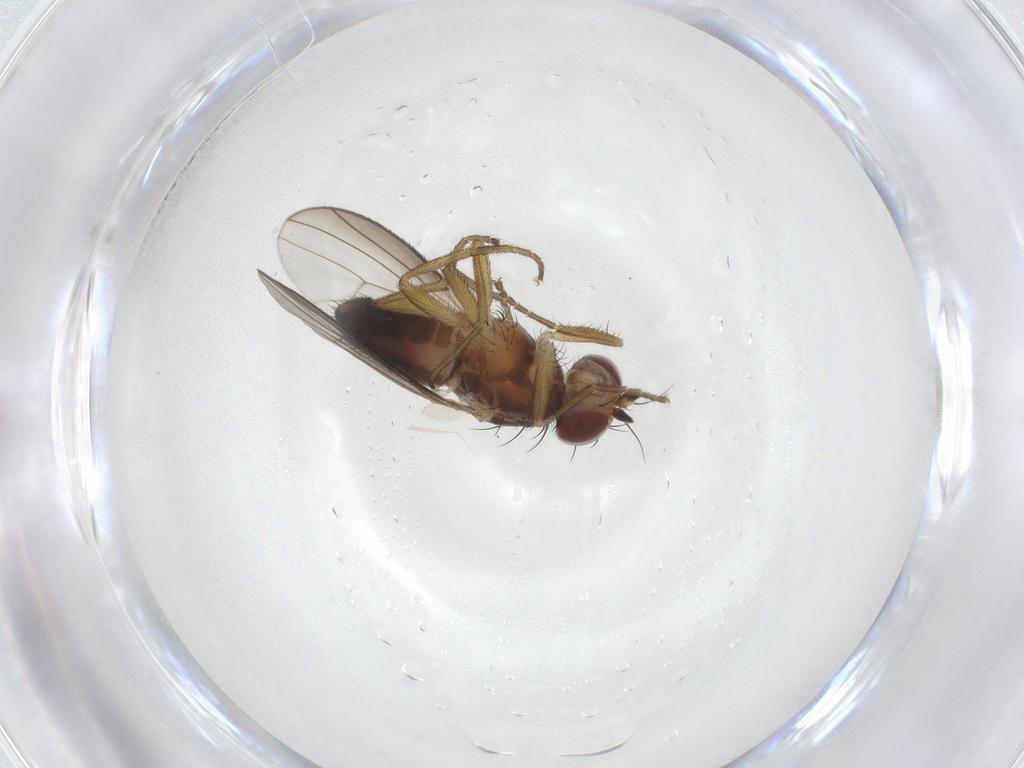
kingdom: Animalia
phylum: Arthropoda
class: Insecta
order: Diptera
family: Heleomyzidae
